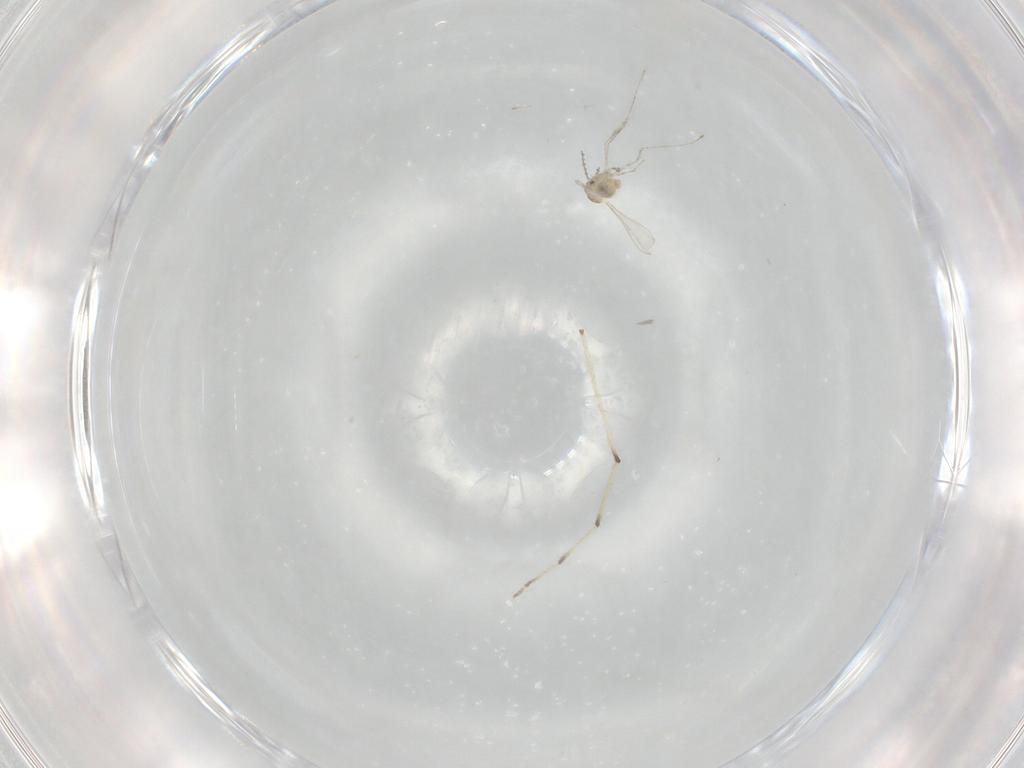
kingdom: Animalia
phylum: Arthropoda
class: Insecta
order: Diptera
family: Cecidomyiidae
